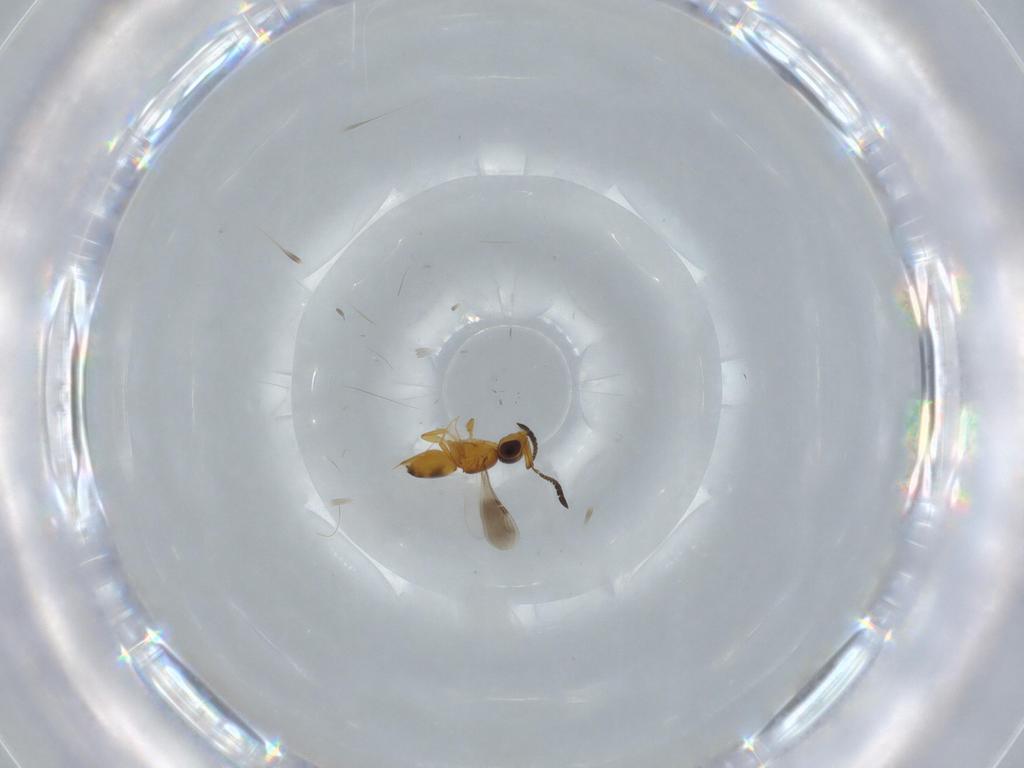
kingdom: Animalia
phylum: Arthropoda
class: Insecta
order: Hymenoptera
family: Ceraphronidae
